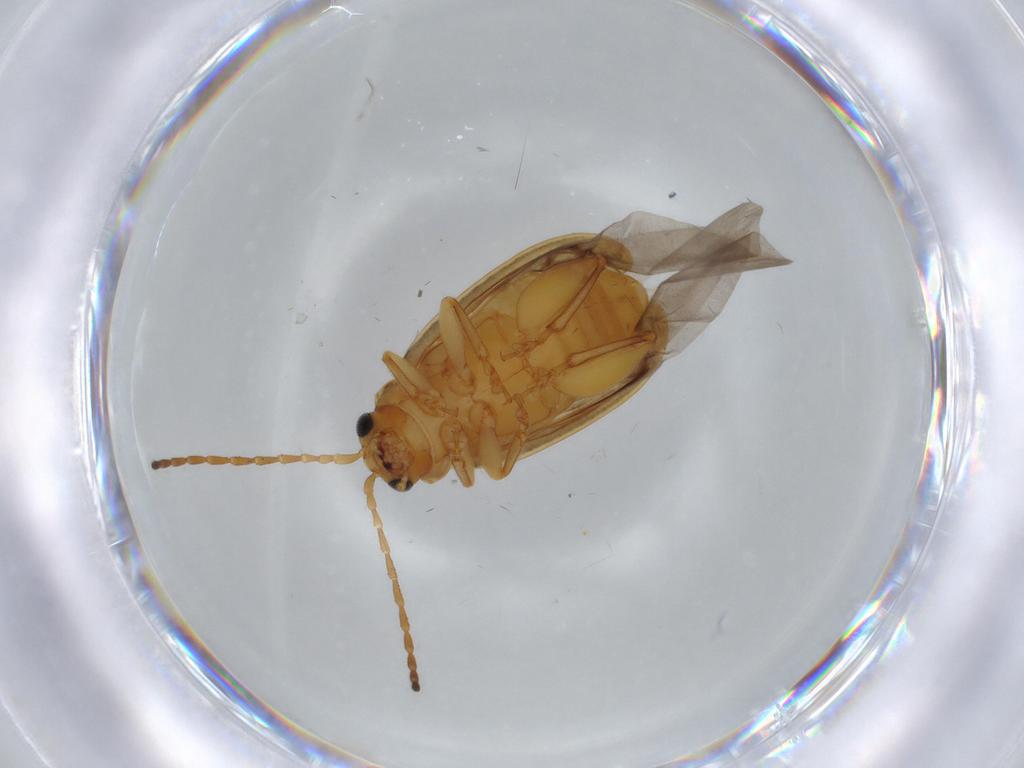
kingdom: Animalia
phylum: Arthropoda
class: Insecta
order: Coleoptera
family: Chrysomelidae
